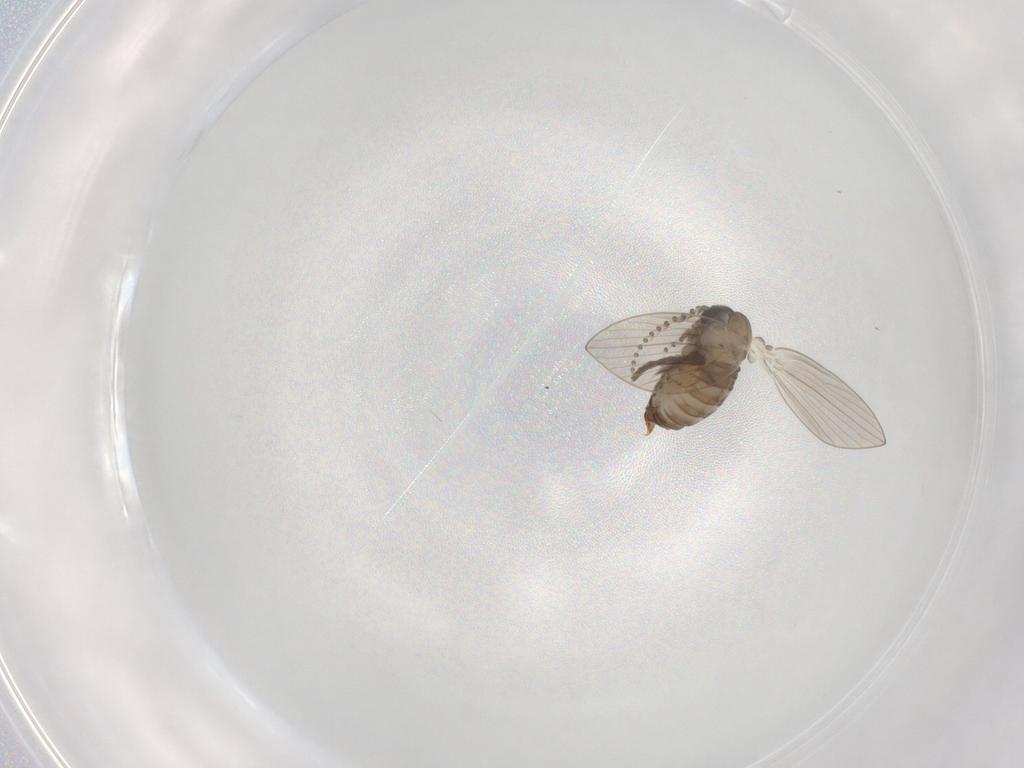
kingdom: Animalia
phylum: Arthropoda
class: Insecta
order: Diptera
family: Psychodidae
